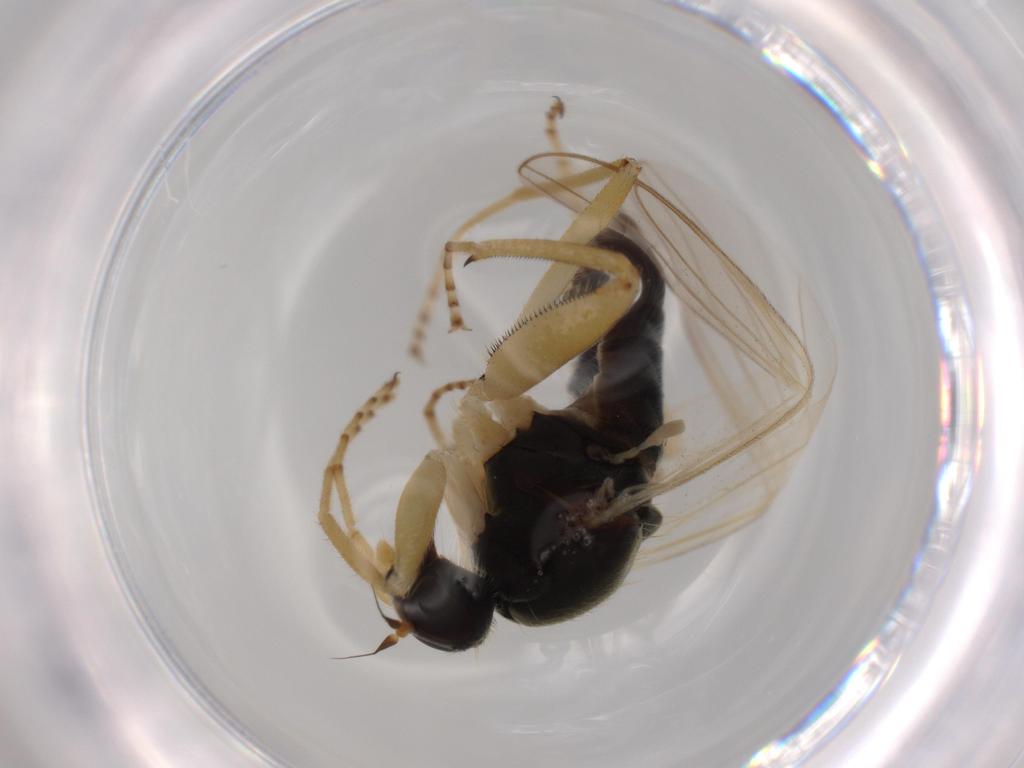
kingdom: Animalia
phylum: Arthropoda
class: Insecta
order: Diptera
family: Hybotidae
